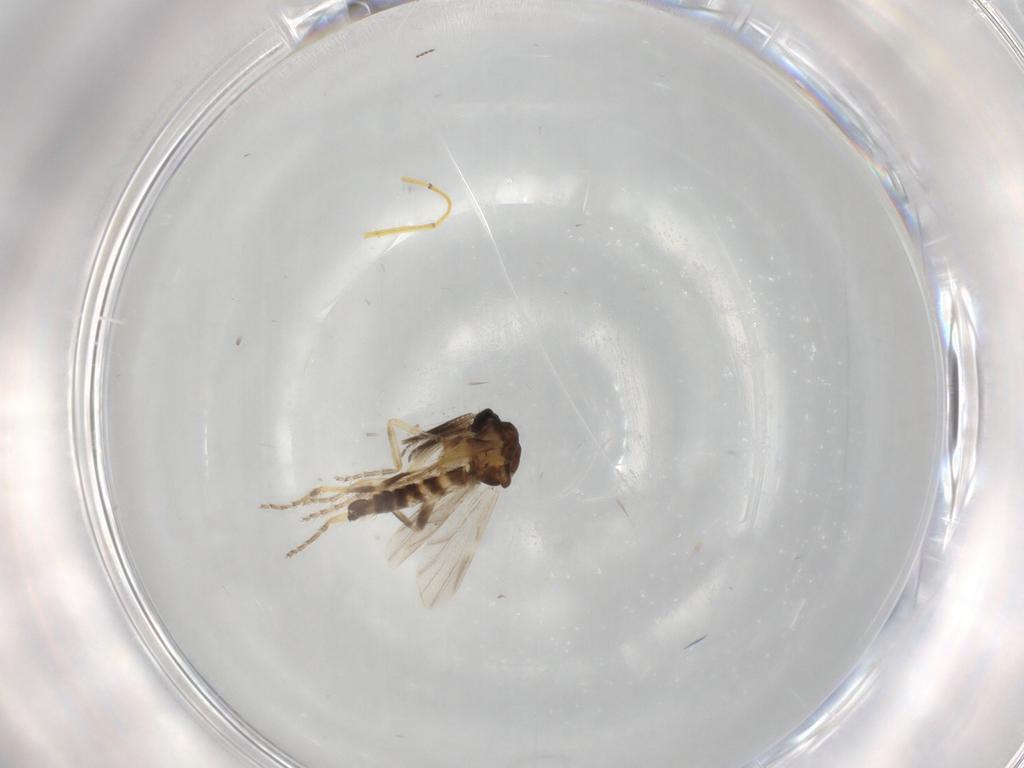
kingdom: Animalia
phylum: Arthropoda
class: Insecta
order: Diptera
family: Ceratopogonidae
